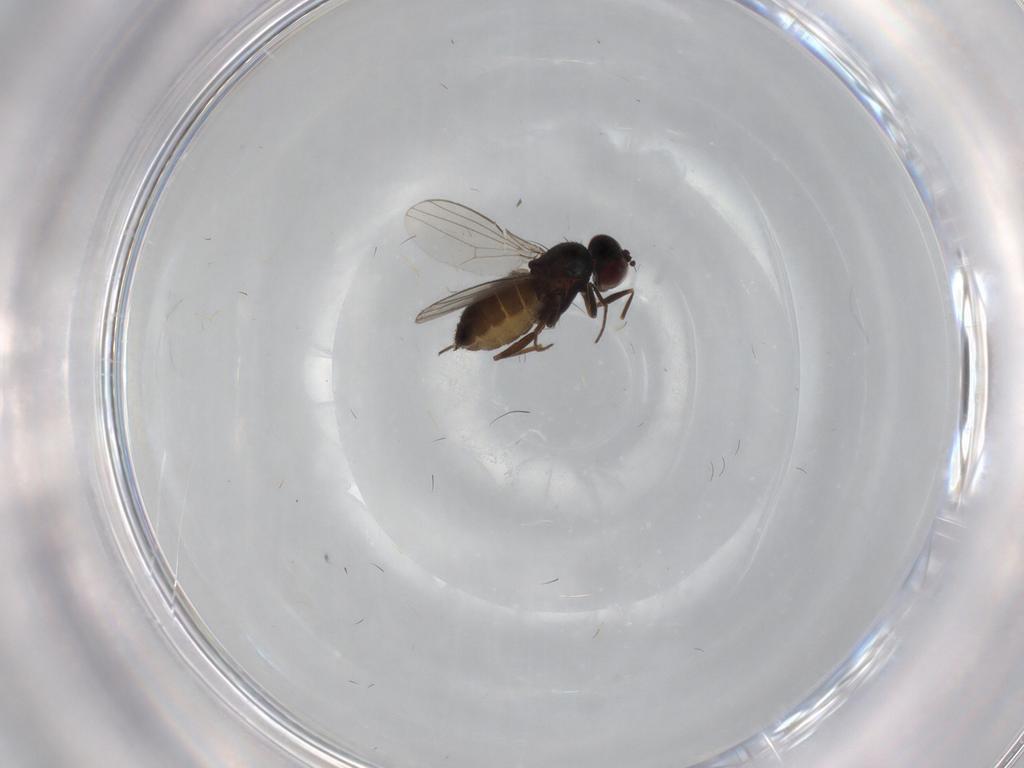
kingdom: Animalia
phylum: Arthropoda
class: Insecta
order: Diptera
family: Dolichopodidae
